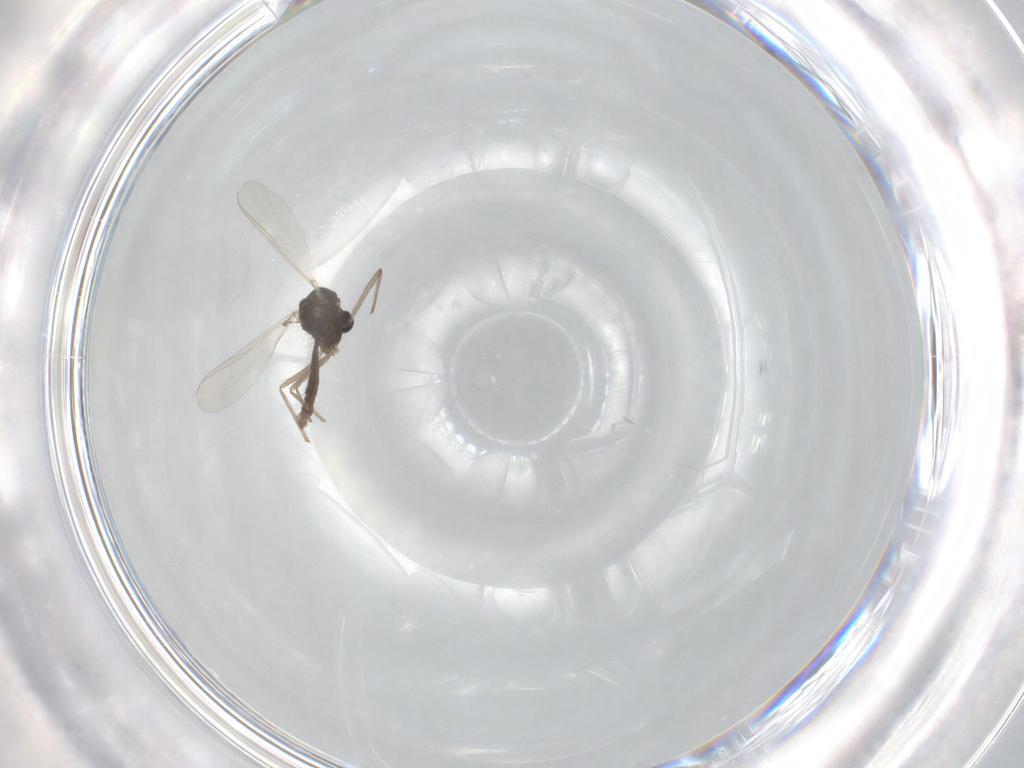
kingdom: Animalia
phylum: Arthropoda
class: Insecta
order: Diptera
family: Chironomidae
